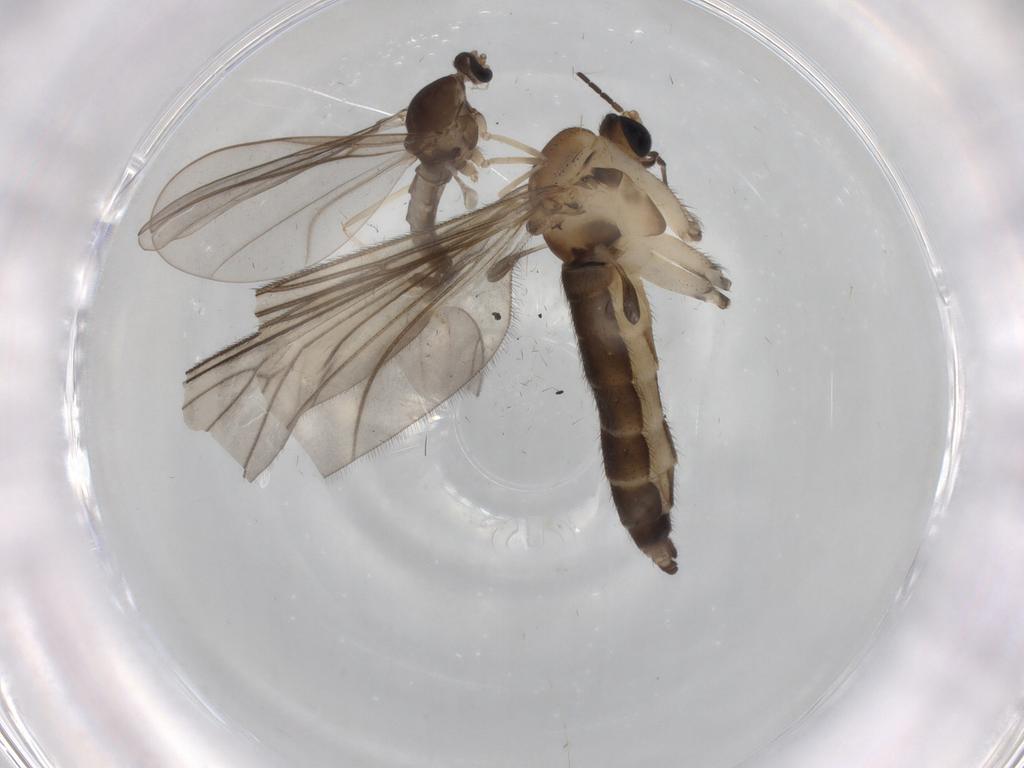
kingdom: Animalia
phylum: Arthropoda
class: Insecta
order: Diptera
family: Sciaridae
